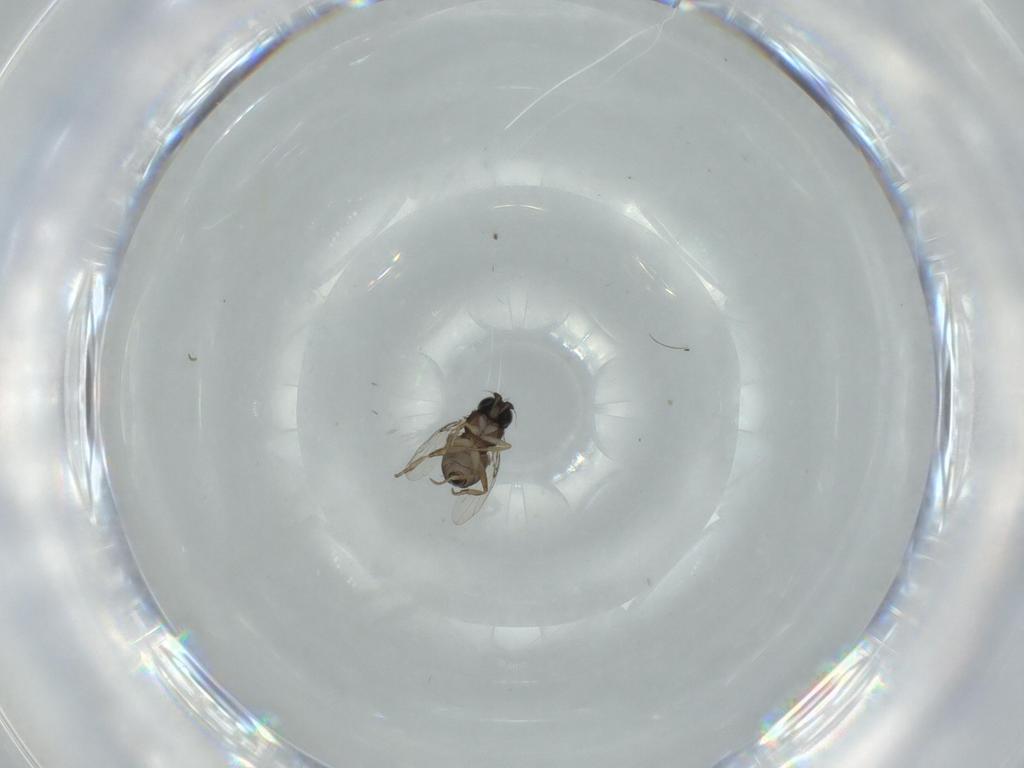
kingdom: Animalia
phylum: Arthropoda
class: Insecta
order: Diptera
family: Phoridae
